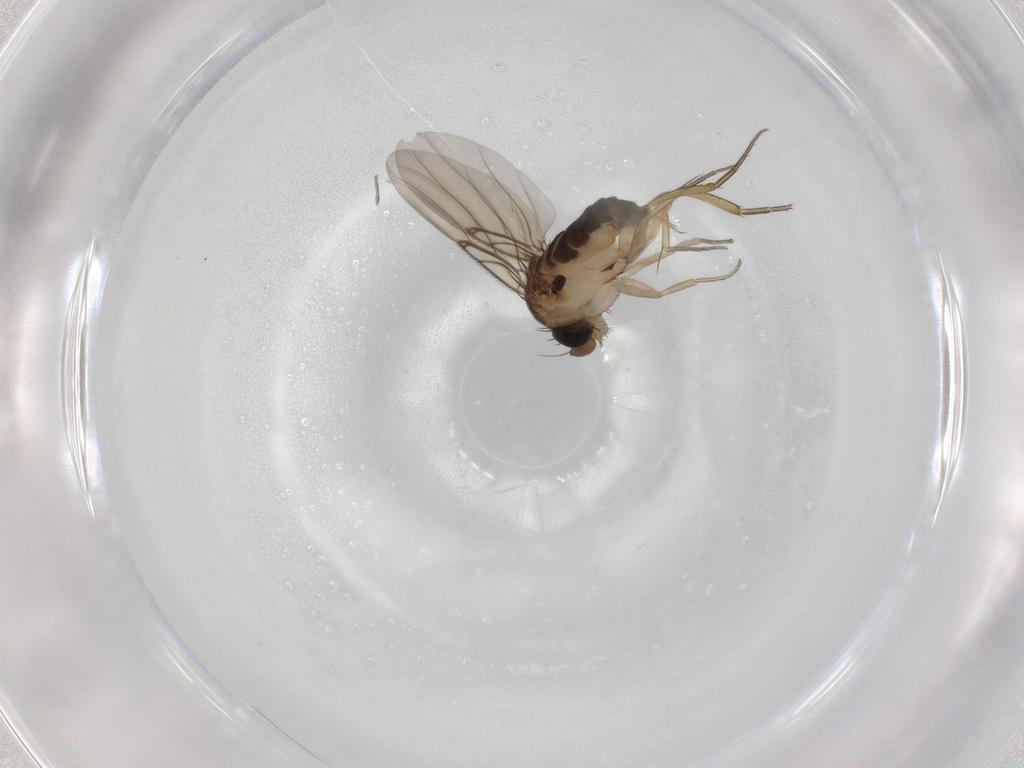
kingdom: Animalia
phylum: Arthropoda
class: Insecta
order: Diptera
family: Phoridae
